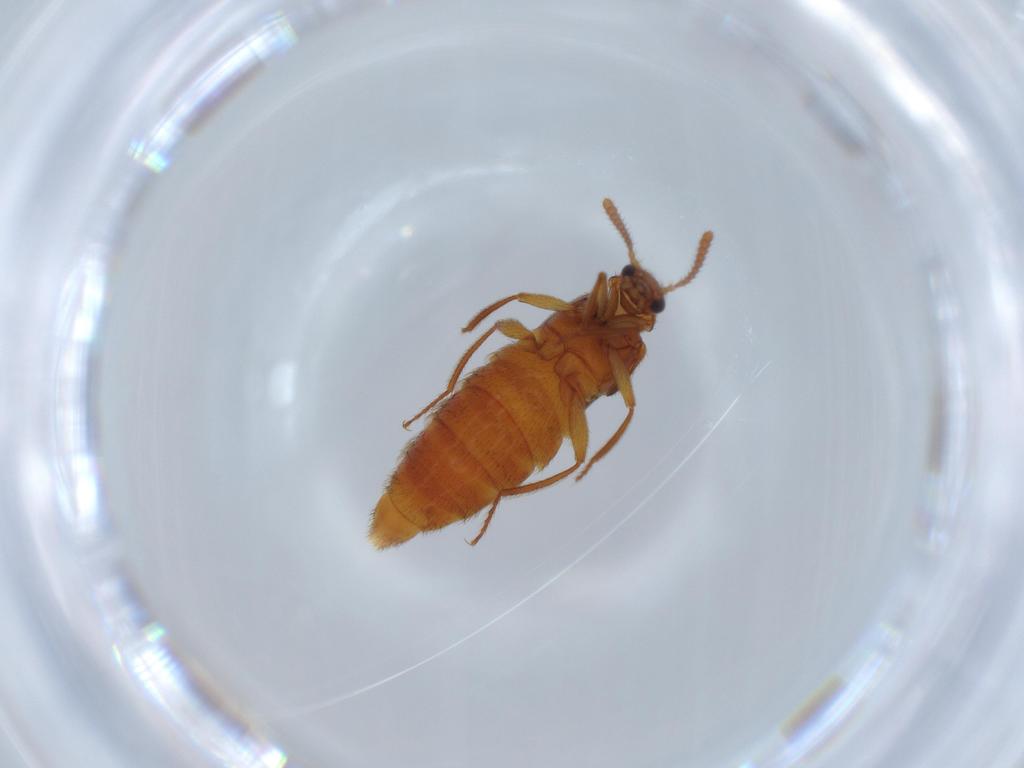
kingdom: Animalia
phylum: Arthropoda
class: Insecta
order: Coleoptera
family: Staphylinidae
